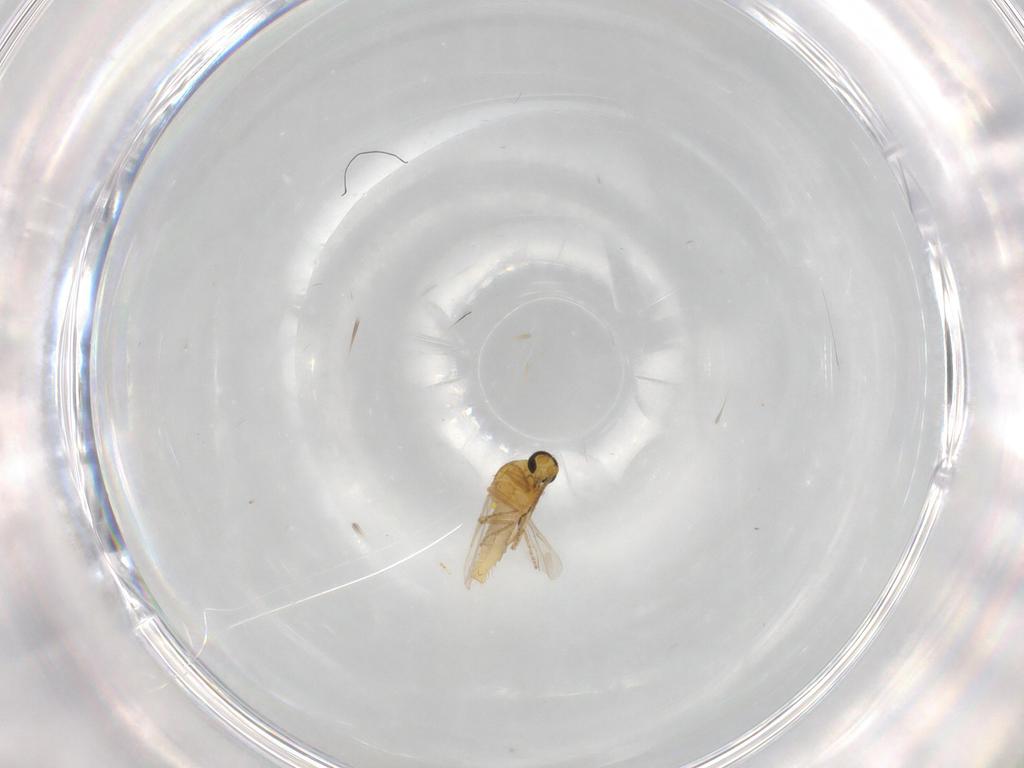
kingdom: Animalia
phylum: Arthropoda
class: Insecta
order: Diptera
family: Ceratopogonidae
